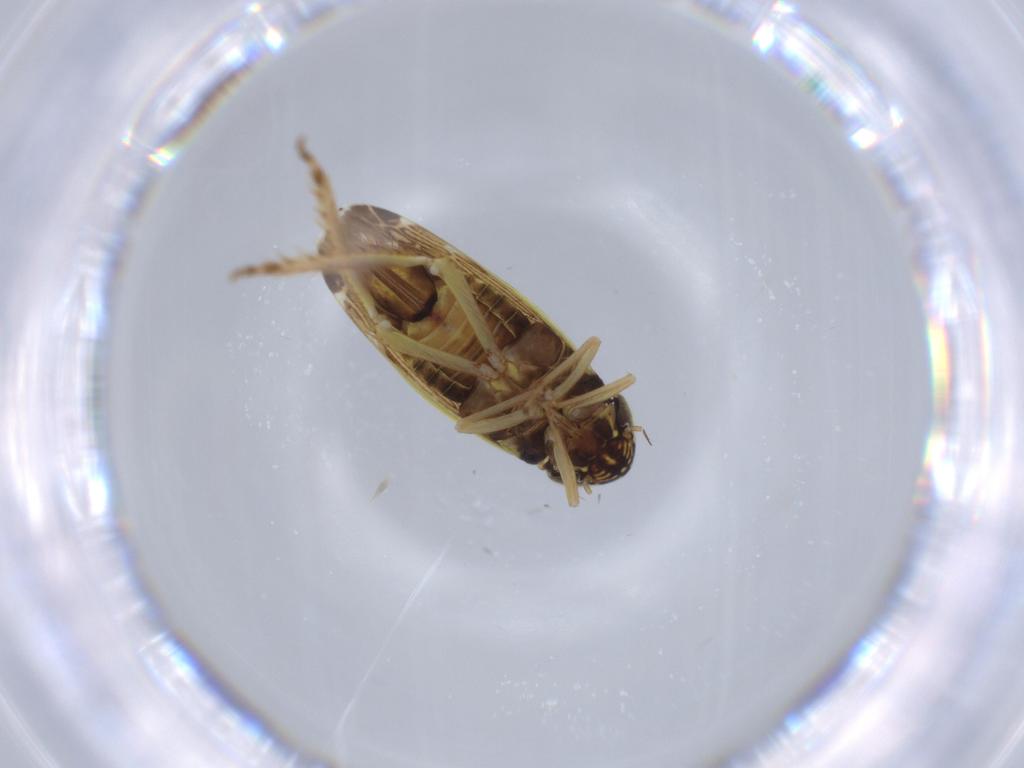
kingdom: Animalia
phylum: Arthropoda
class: Insecta
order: Hemiptera
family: Cicadellidae
